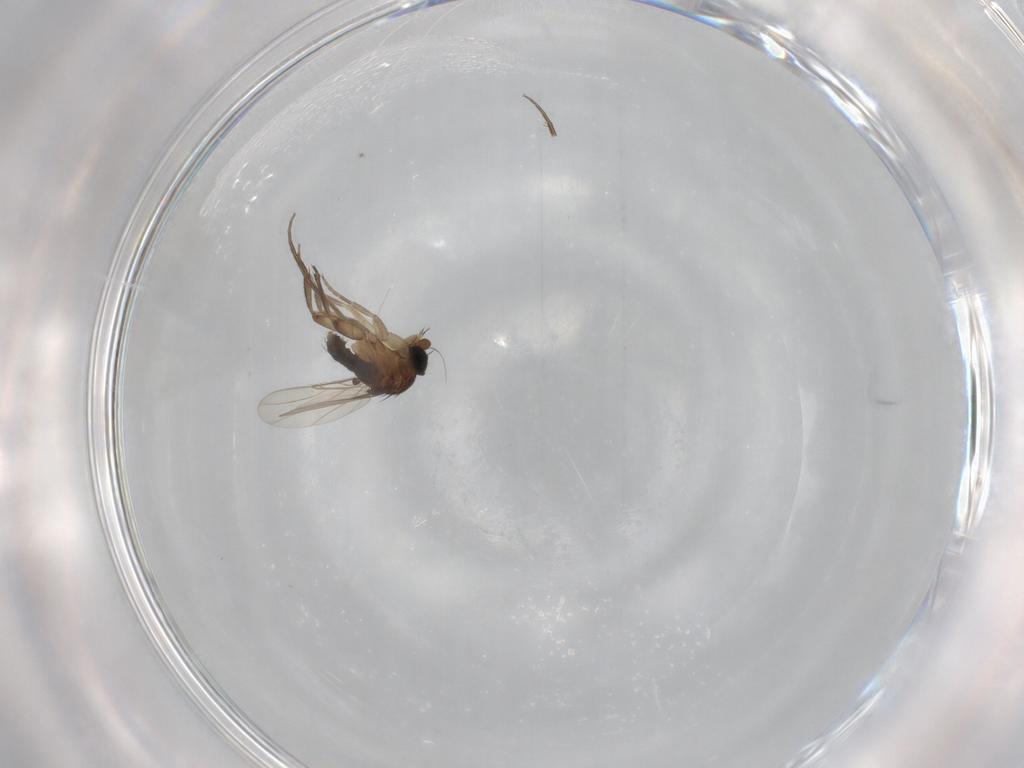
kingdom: Animalia
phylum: Arthropoda
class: Insecta
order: Diptera
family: Phoridae
